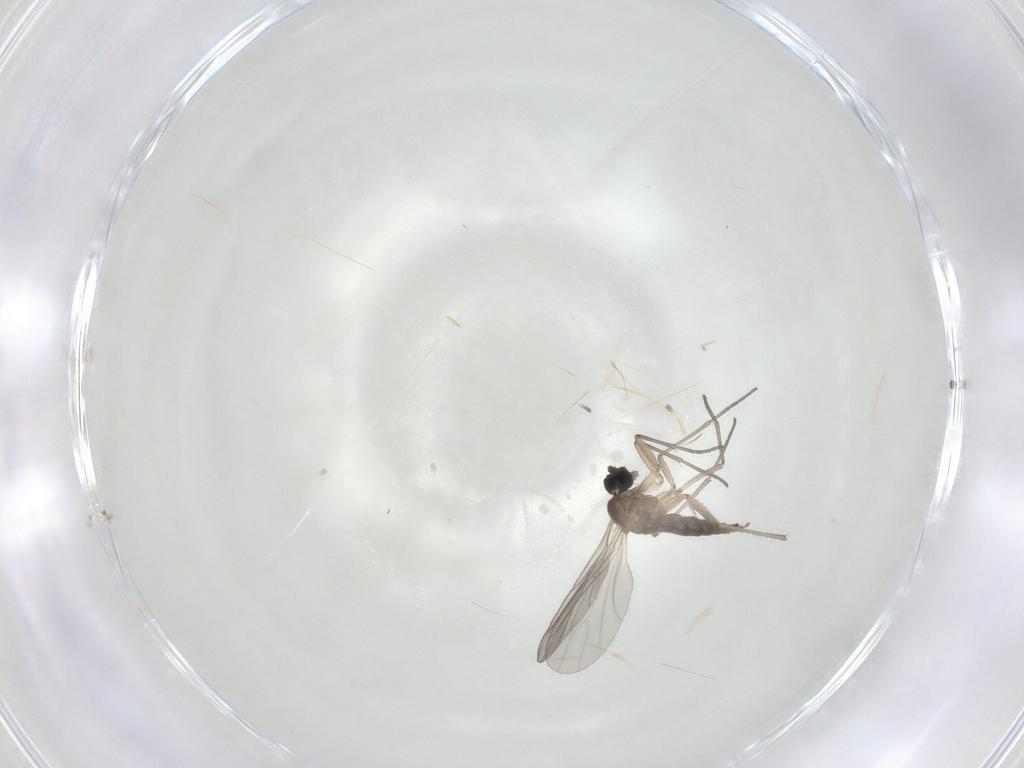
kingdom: Animalia
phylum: Arthropoda
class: Insecta
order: Diptera
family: Sciaridae
